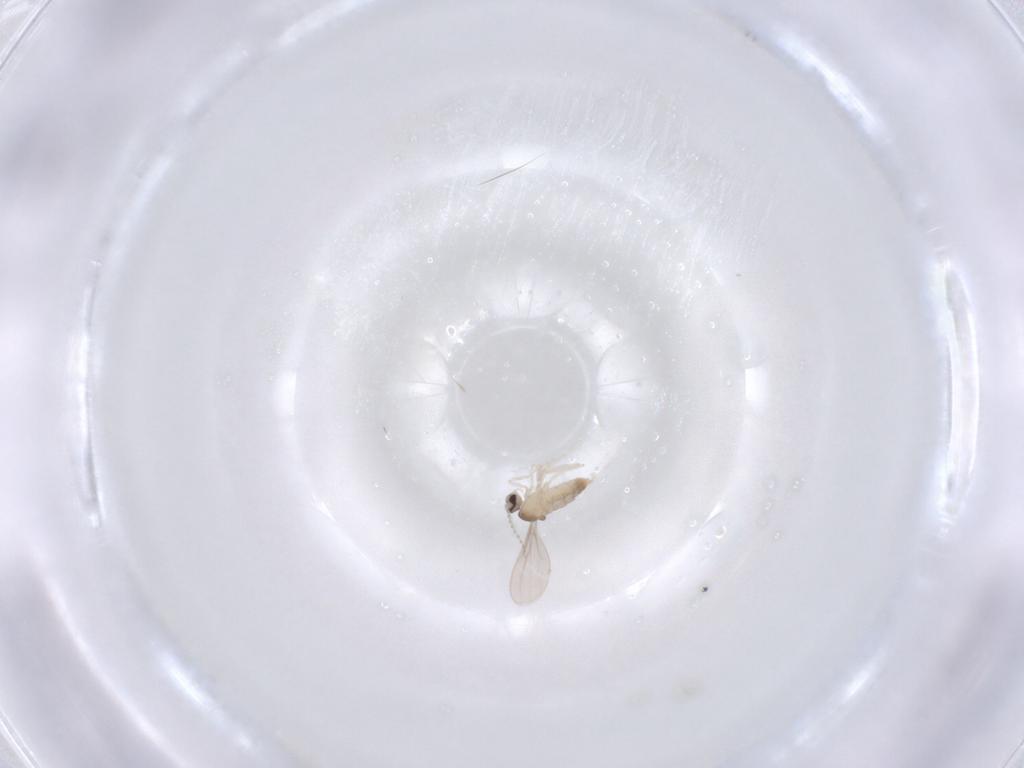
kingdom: Animalia
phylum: Arthropoda
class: Insecta
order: Diptera
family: Cecidomyiidae
